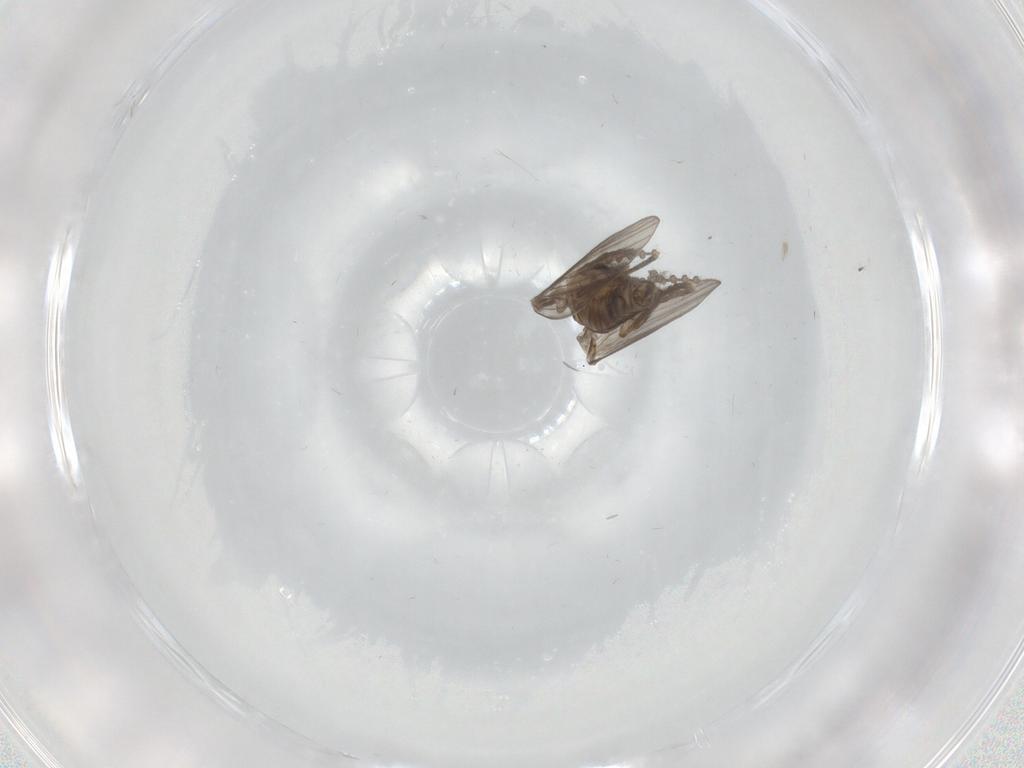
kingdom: Animalia
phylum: Arthropoda
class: Insecta
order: Diptera
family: Psychodidae
